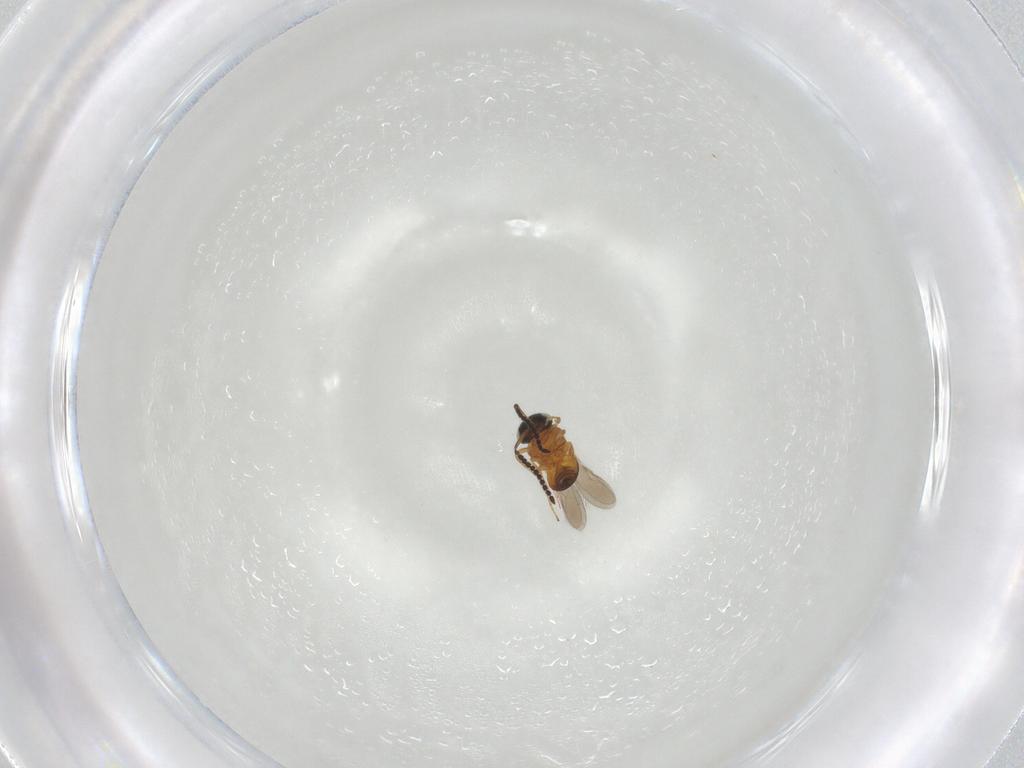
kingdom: Animalia
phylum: Arthropoda
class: Insecta
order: Hymenoptera
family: Scelionidae
